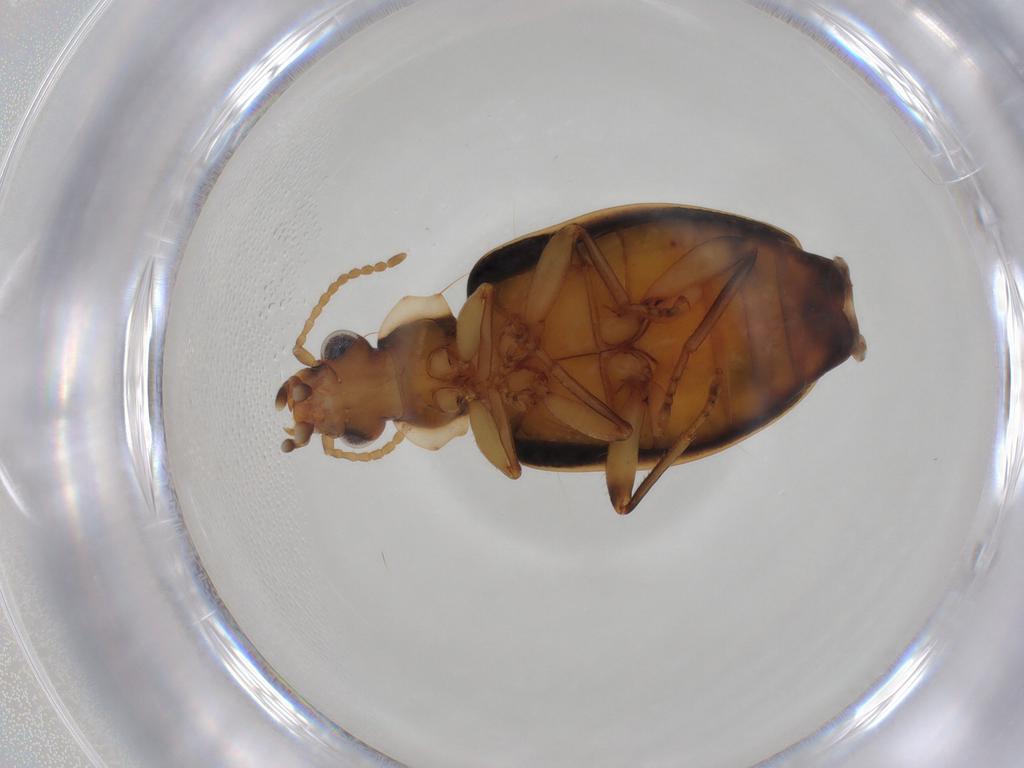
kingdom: Animalia
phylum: Arthropoda
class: Insecta
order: Coleoptera
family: Carabidae
